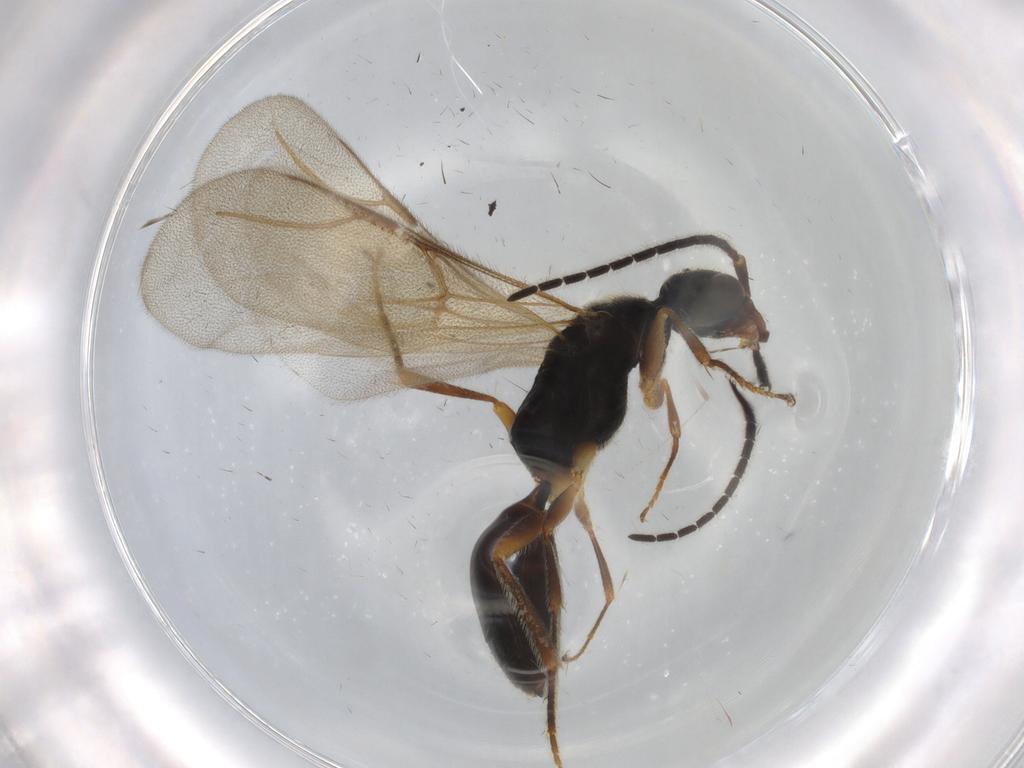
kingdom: Animalia
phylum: Arthropoda
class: Insecta
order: Hymenoptera
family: Bethylidae
